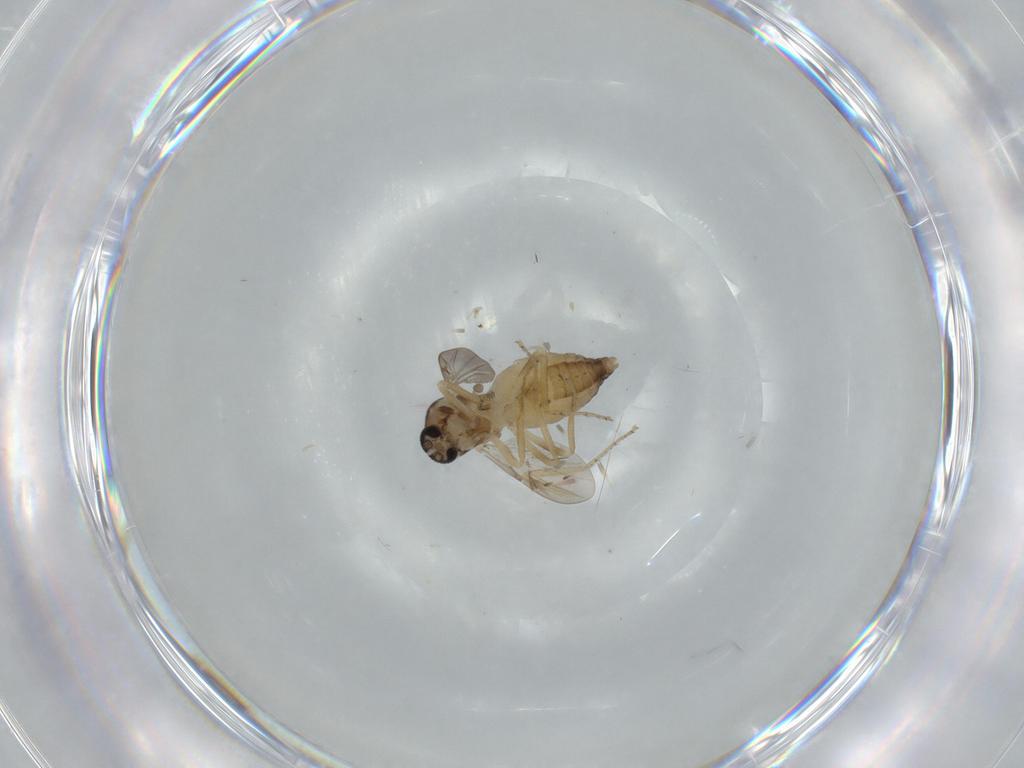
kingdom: Animalia
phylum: Arthropoda
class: Insecta
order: Diptera
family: Ceratopogonidae
